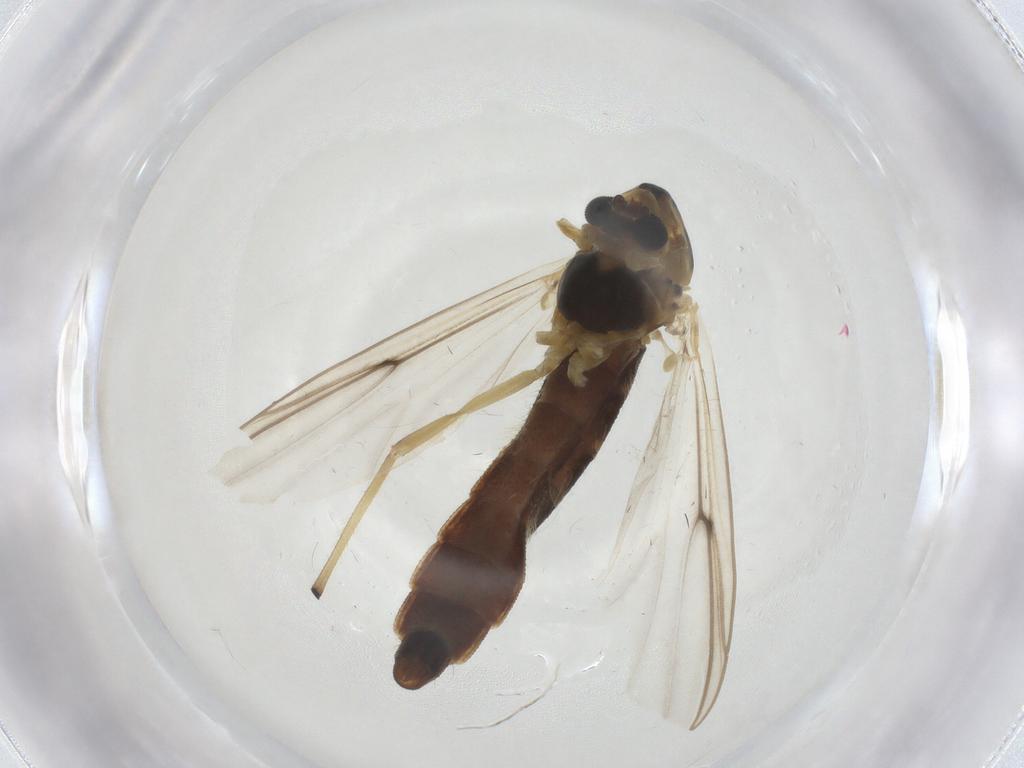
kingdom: Animalia
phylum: Arthropoda
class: Insecta
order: Diptera
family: Chironomidae
